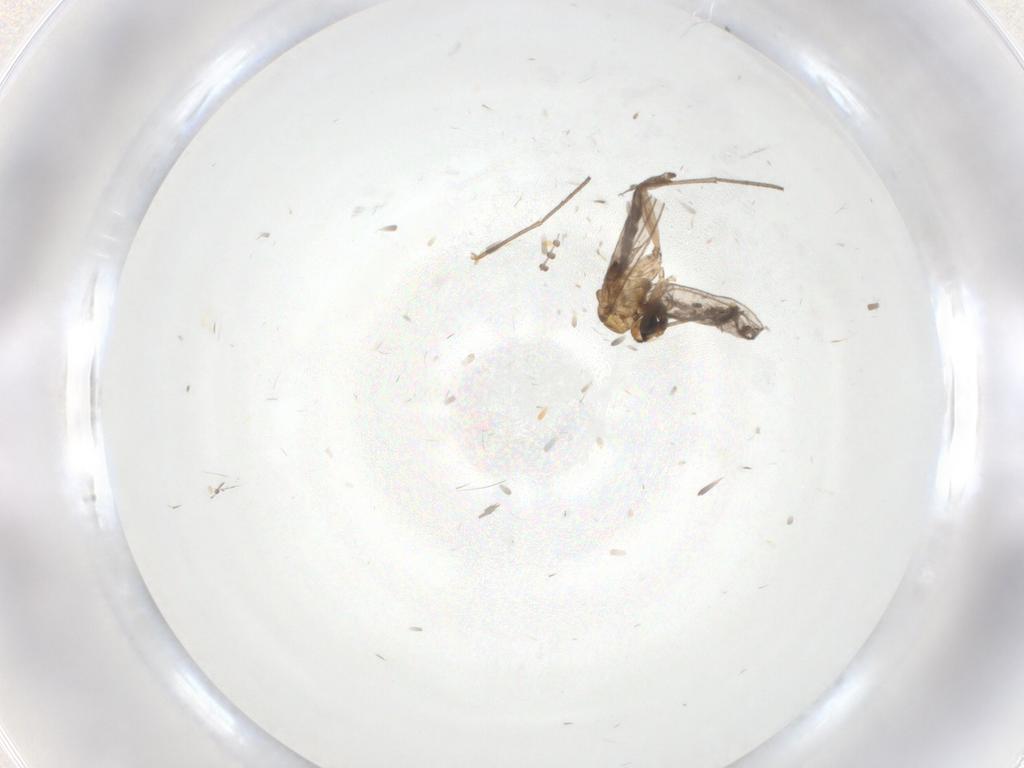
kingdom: Animalia
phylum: Arthropoda
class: Insecta
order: Diptera
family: Psychodidae
